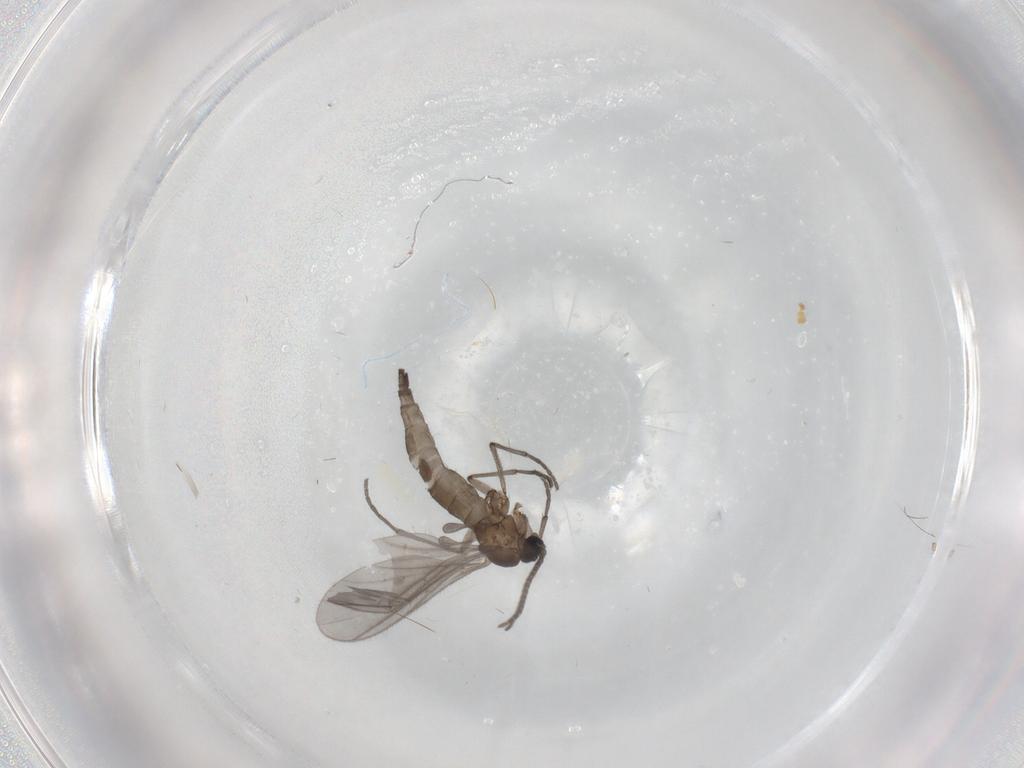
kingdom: Animalia
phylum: Arthropoda
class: Insecta
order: Diptera
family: Sciaridae
